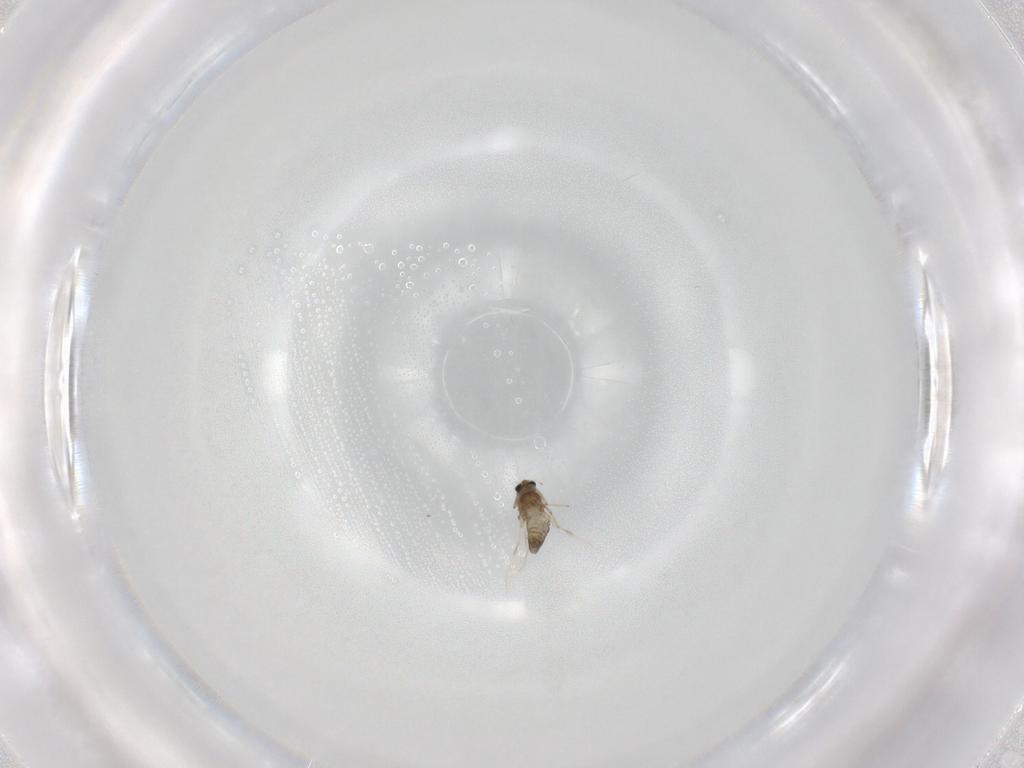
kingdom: Animalia
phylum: Arthropoda
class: Insecta
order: Diptera
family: Chironomidae
